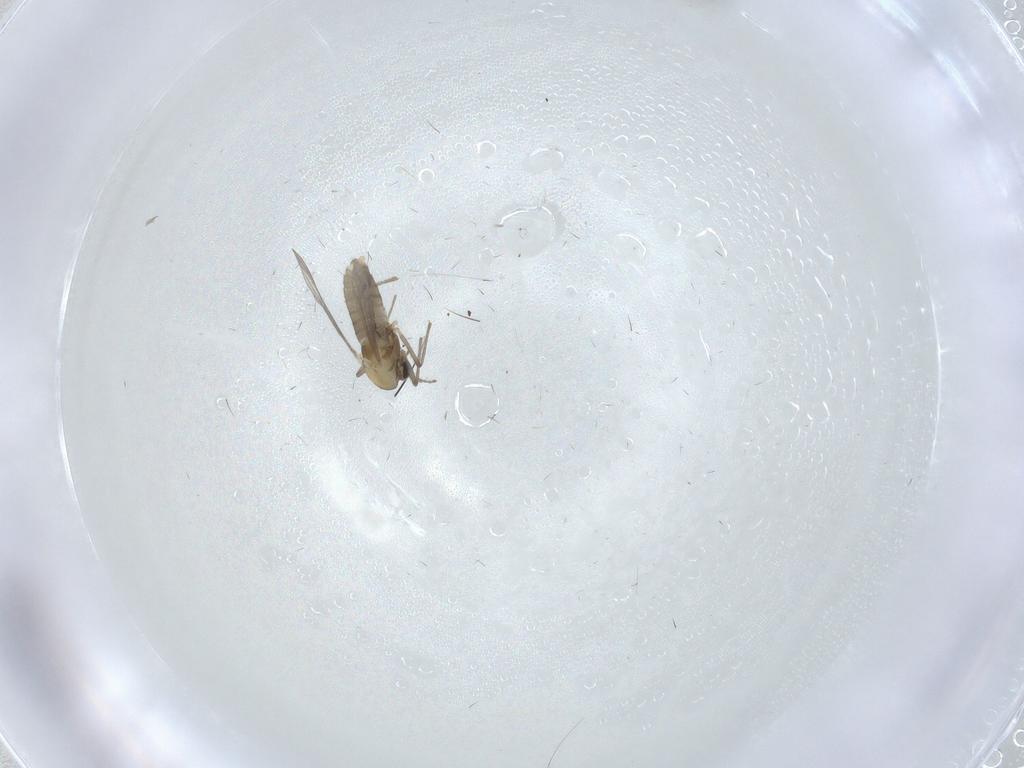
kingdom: Animalia
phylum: Arthropoda
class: Insecta
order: Diptera
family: Chironomidae
